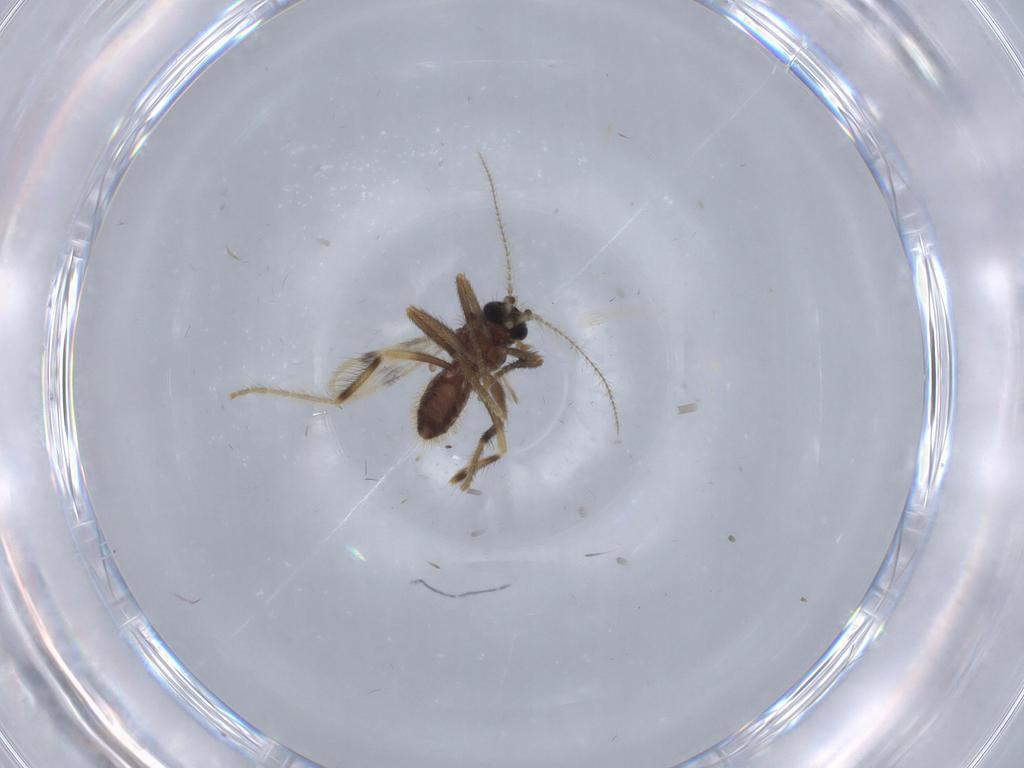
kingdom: Animalia
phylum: Arthropoda
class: Insecta
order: Diptera
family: Corethrellidae
